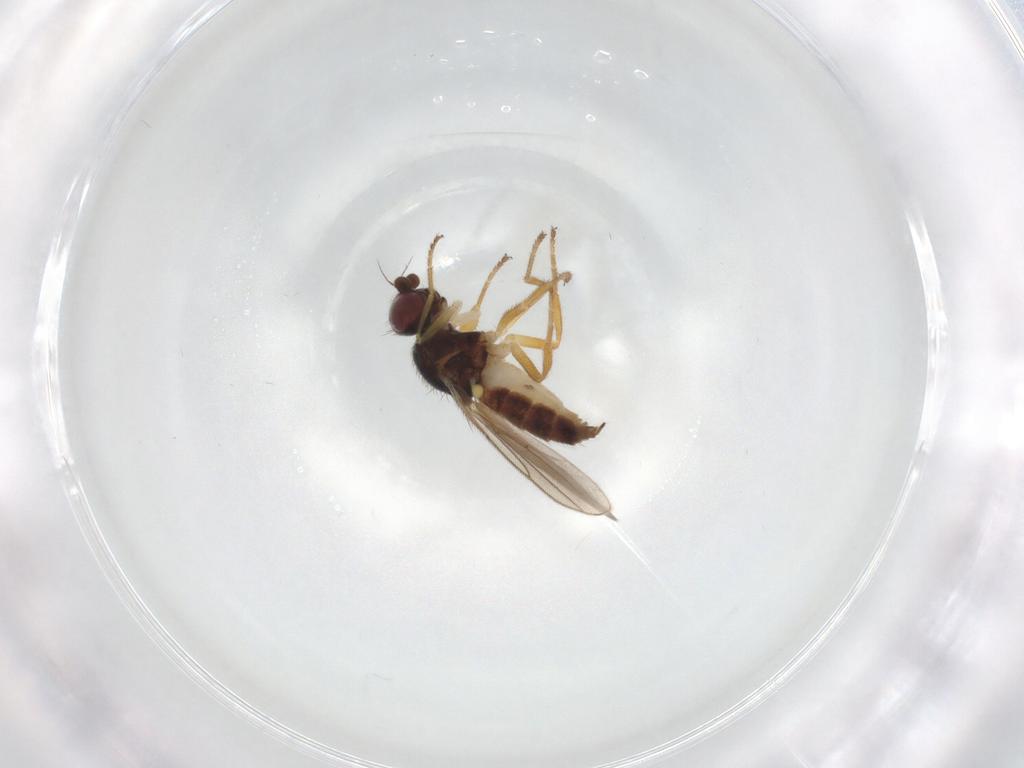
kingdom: Animalia
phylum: Arthropoda
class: Insecta
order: Diptera
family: Chloropidae
